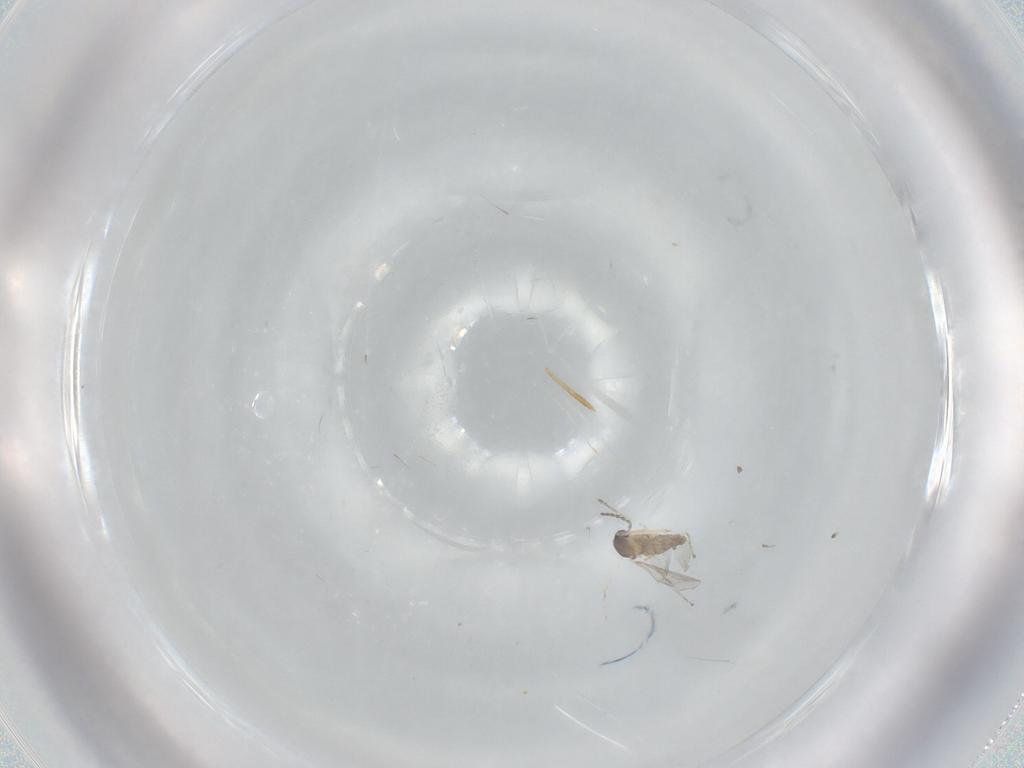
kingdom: Animalia
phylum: Arthropoda
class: Insecta
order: Diptera
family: Cecidomyiidae
